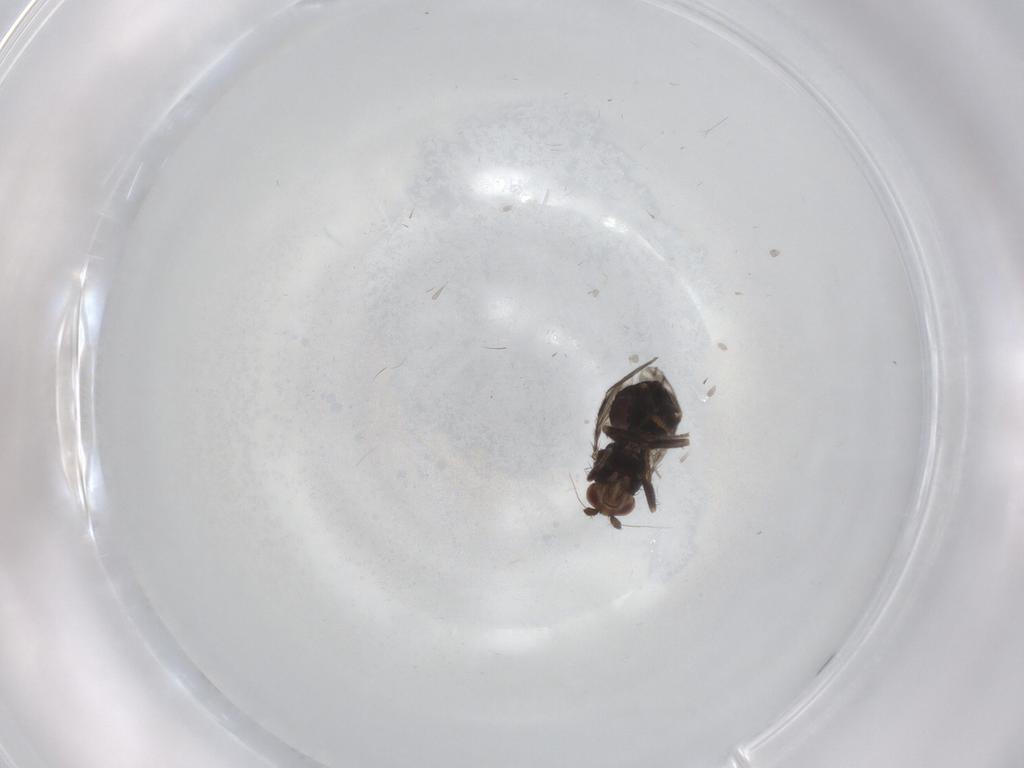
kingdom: Animalia
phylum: Arthropoda
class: Insecta
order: Diptera
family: Sphaeroceridae
